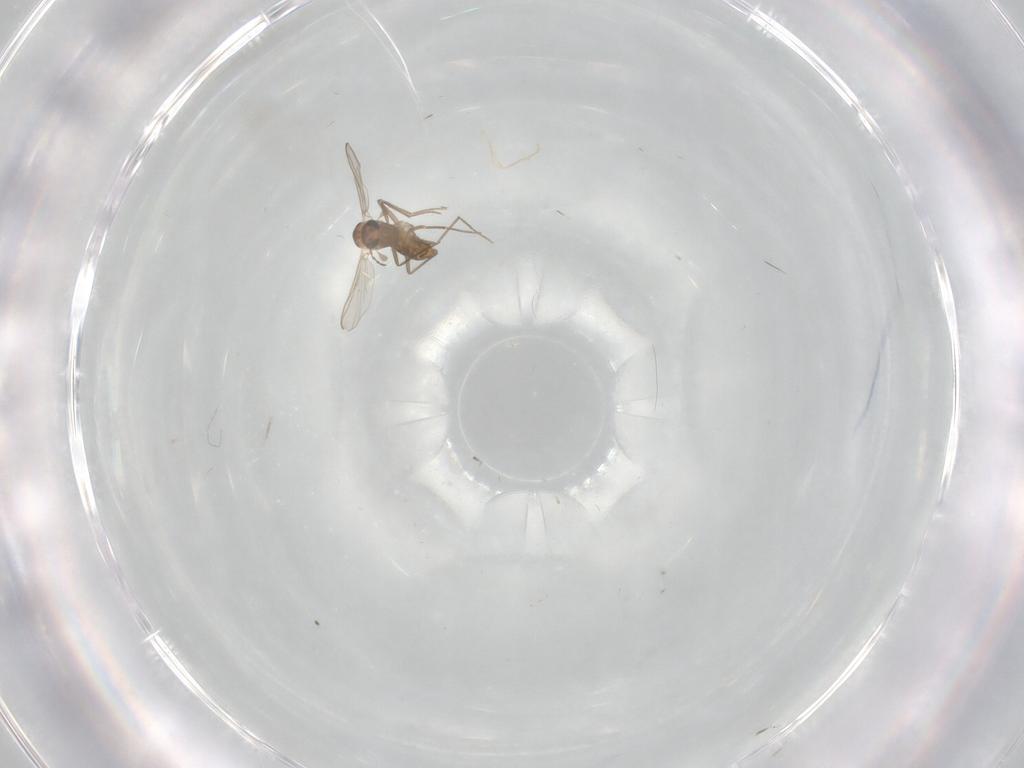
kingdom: Animalia
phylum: Arthropoda
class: Insecta
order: Diptera
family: Chironomidae
